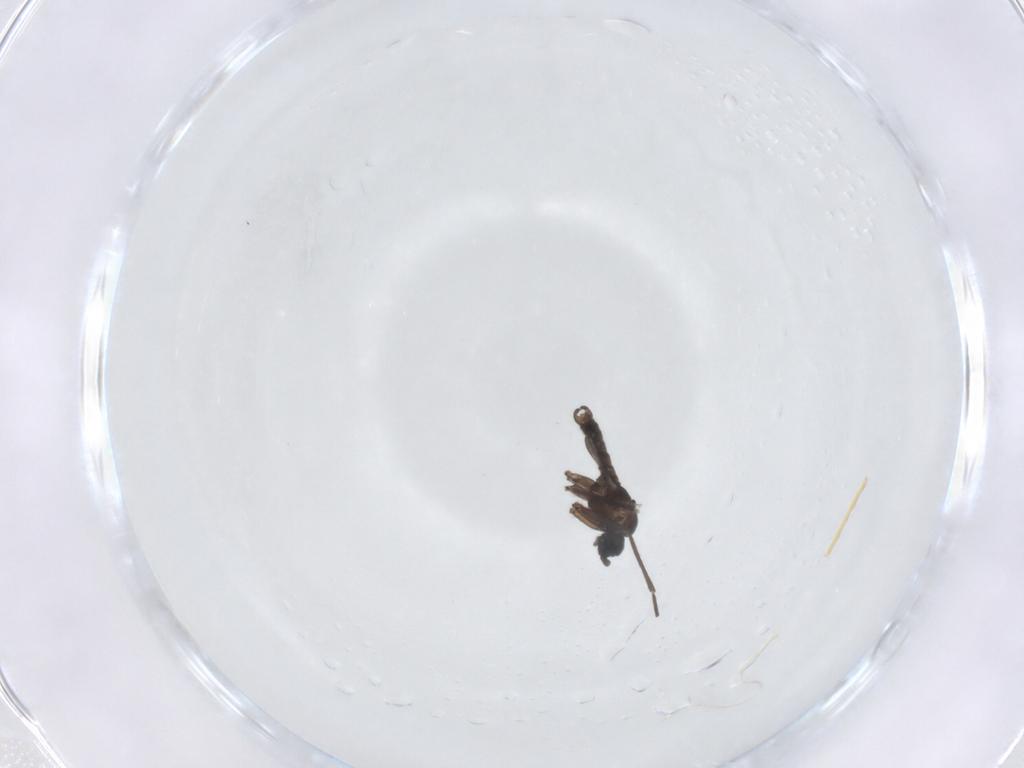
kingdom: Animalia
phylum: Arthropoda
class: Insecta
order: Diptera
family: Sciaridae
